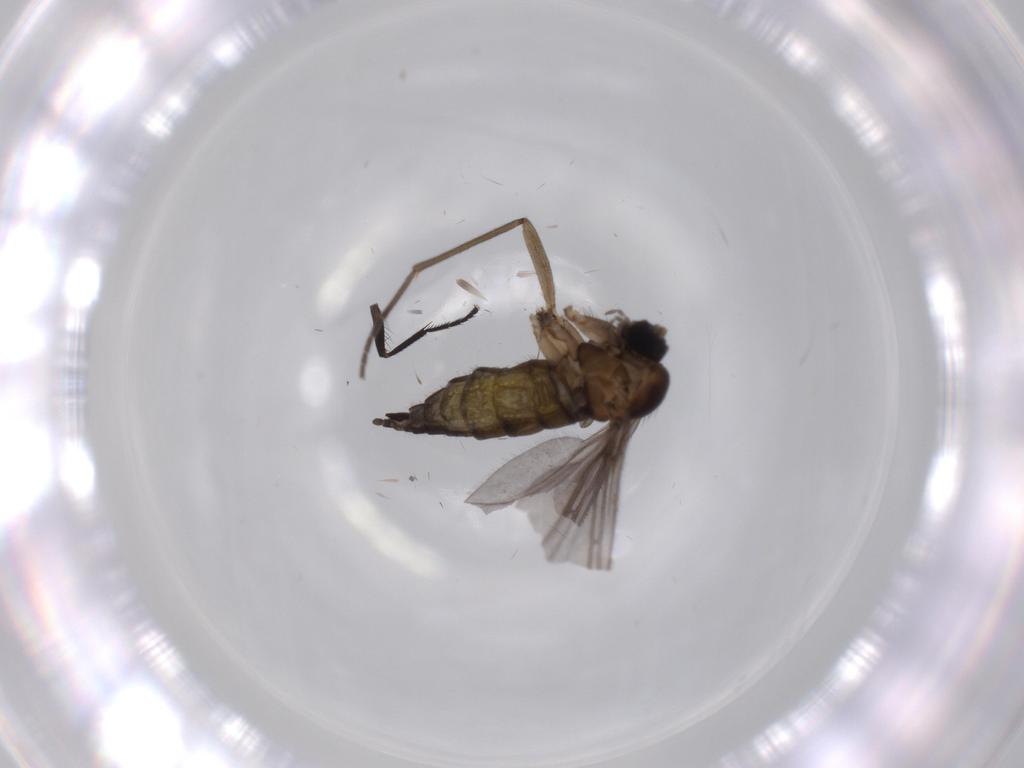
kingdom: Animalia
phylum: Arthropoda
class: Insecta
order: Diptera
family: Sciaridae
